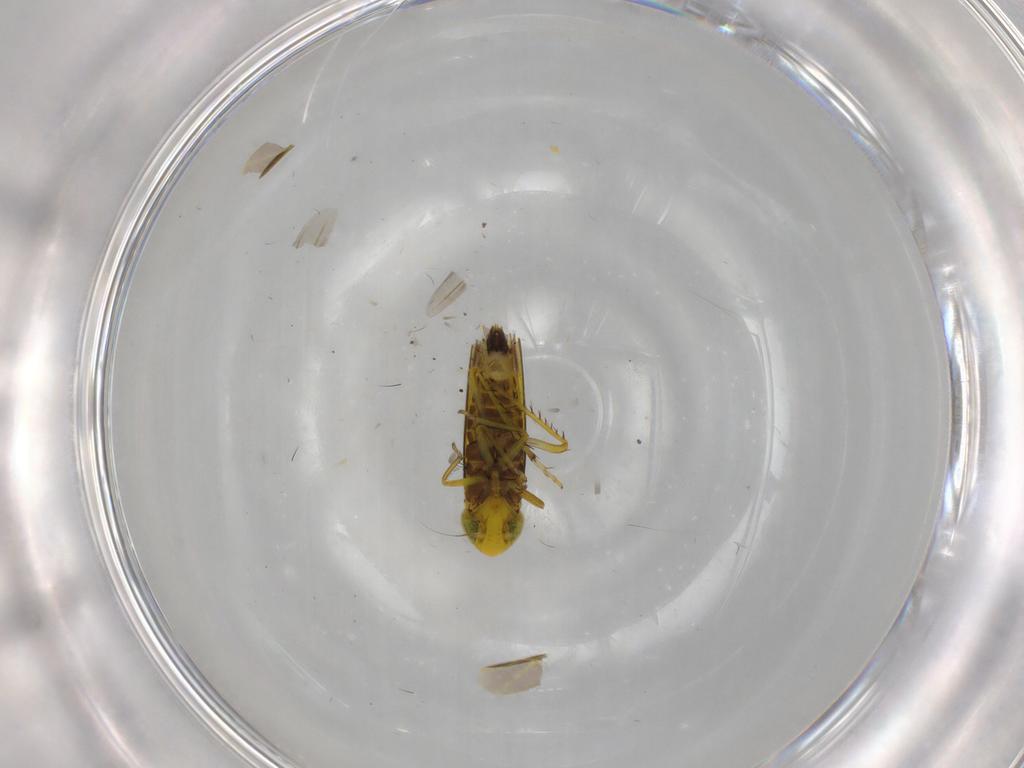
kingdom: Animalia
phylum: Arthropoda
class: Insecta
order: Hemiptera
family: Cicadellidae
